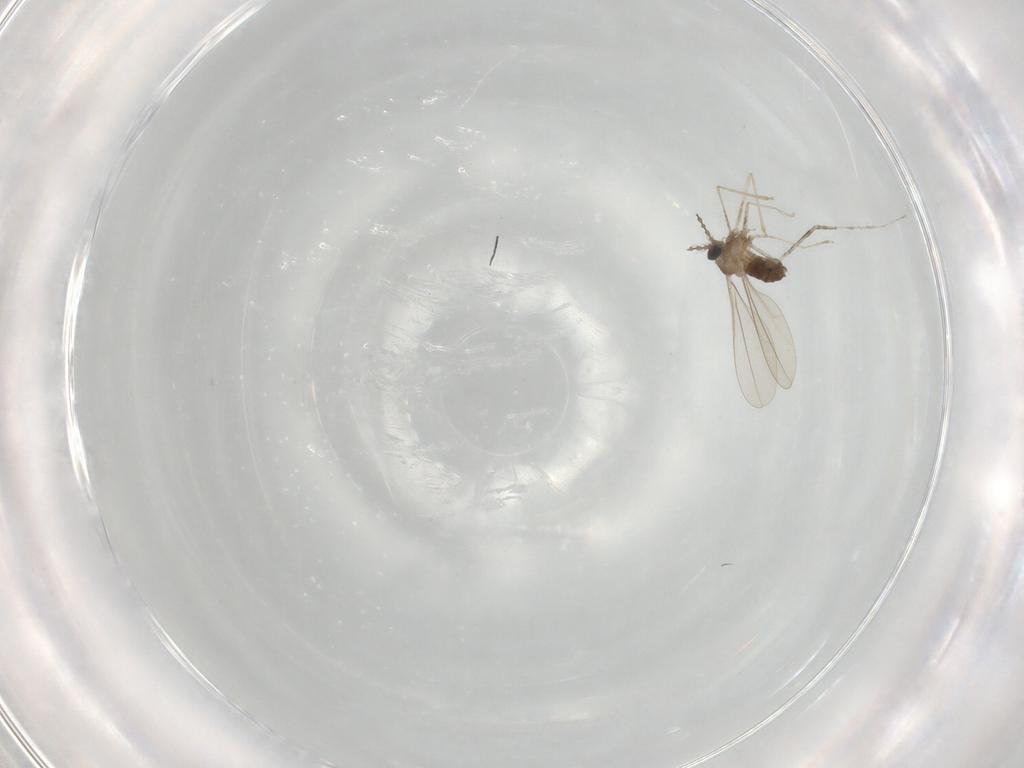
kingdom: Animalia
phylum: Arthropoda
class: Insecta
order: Diptera
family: Cecidomyiidae
